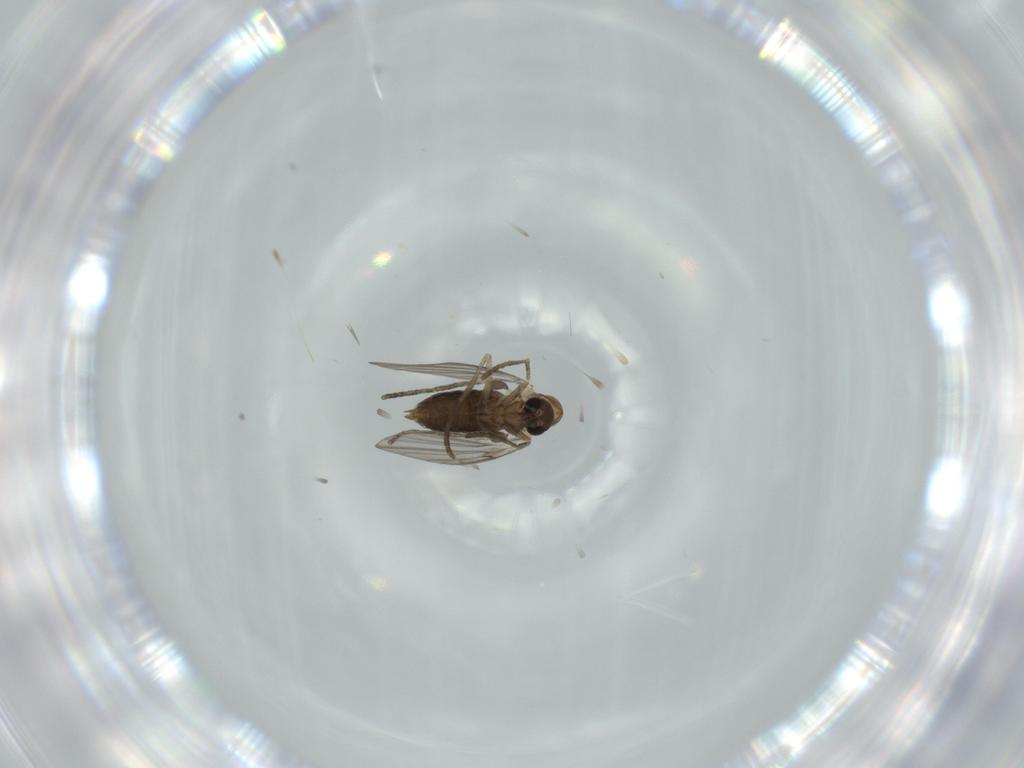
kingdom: Animalia
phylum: Arthropoda
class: Insecta
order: Diptera
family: Psychodidae
